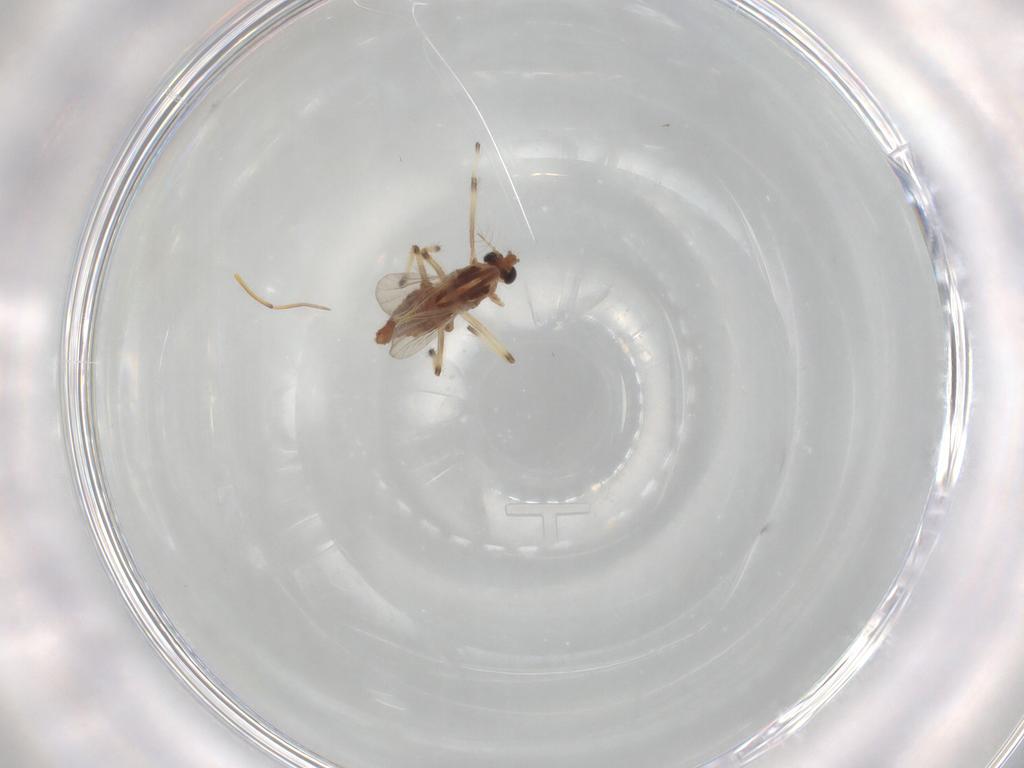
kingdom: Animalia
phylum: Arthropoda
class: Insecta
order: Diptera
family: Chironomidae
